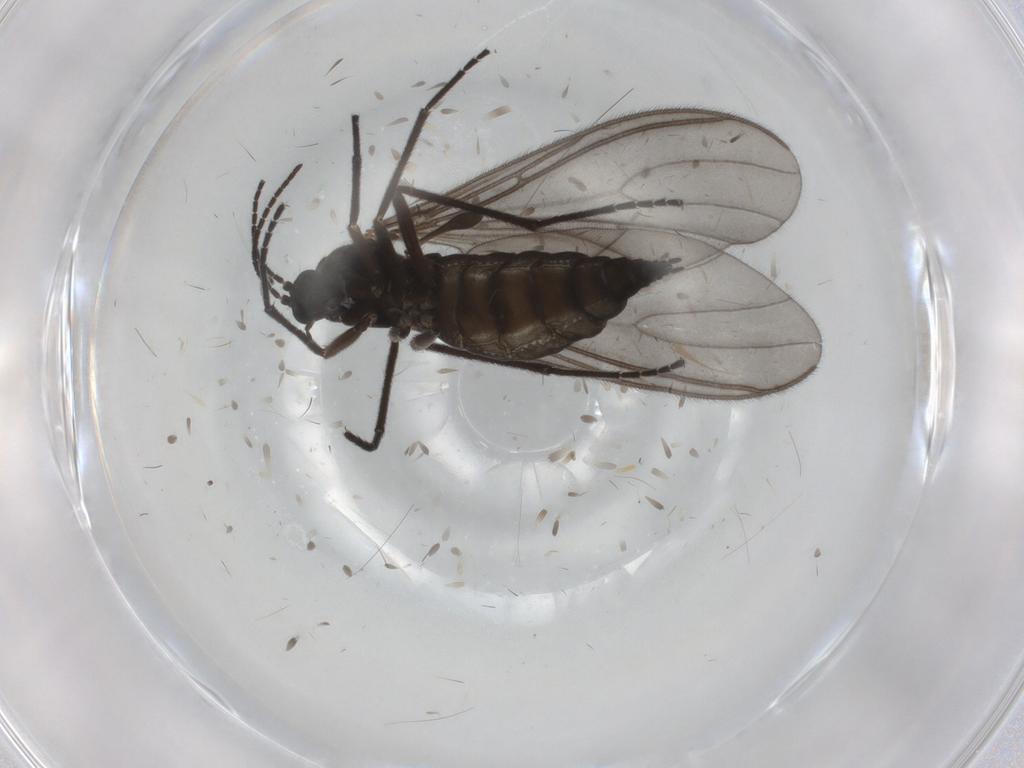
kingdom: Animalia
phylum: Arthropoda
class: Insecta
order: Diptera
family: Sciaridae
